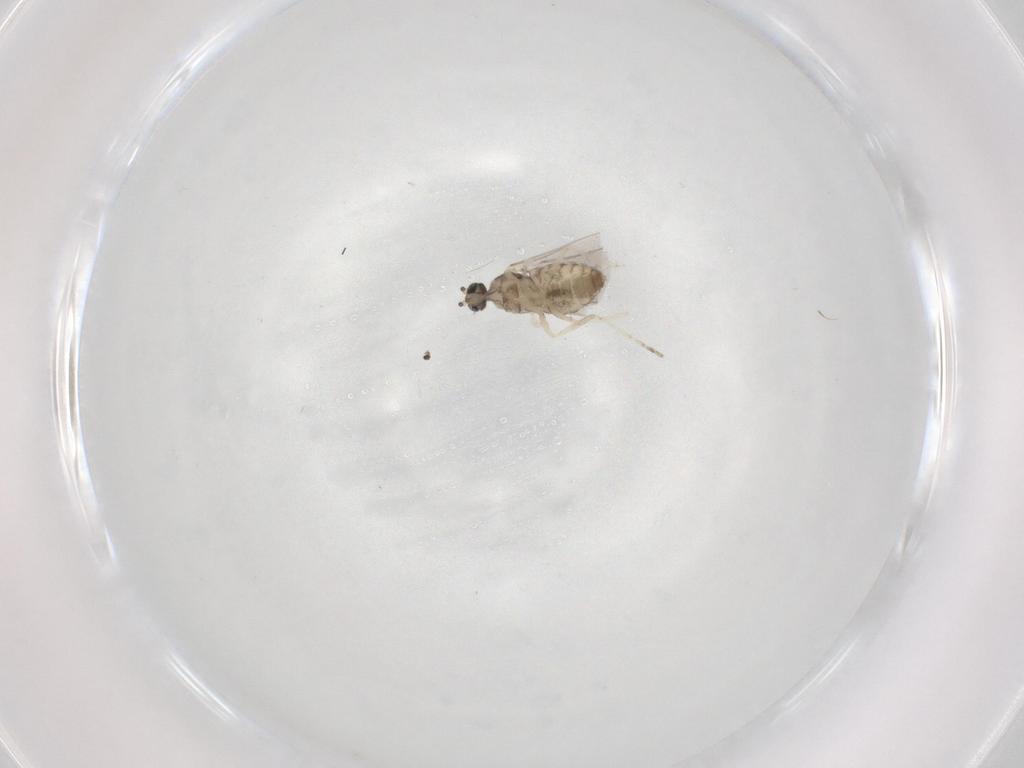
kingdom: Animalia
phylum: Arthropoda
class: Insecta
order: Diptera
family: Cecidomyiidae
